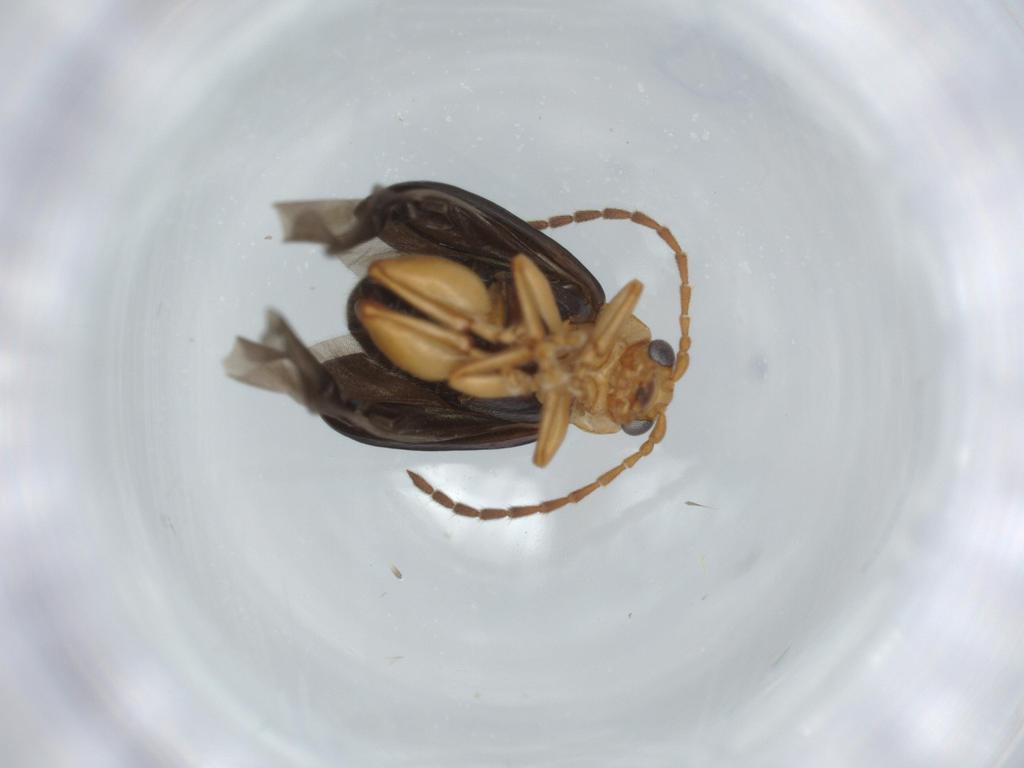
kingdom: Animalia
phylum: Arthropoda
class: Insecta
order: Coleoptera
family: Chrysomelidae
